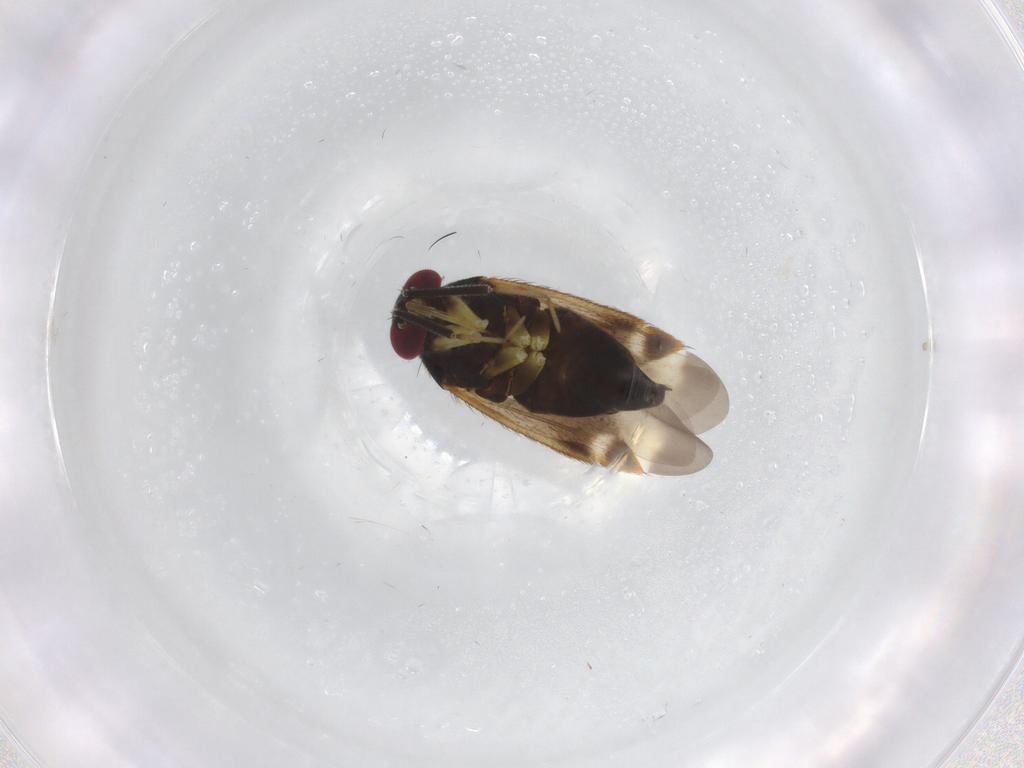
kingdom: Animalia
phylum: Arthropoda
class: Insecta
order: Hemiptera
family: Miridae
